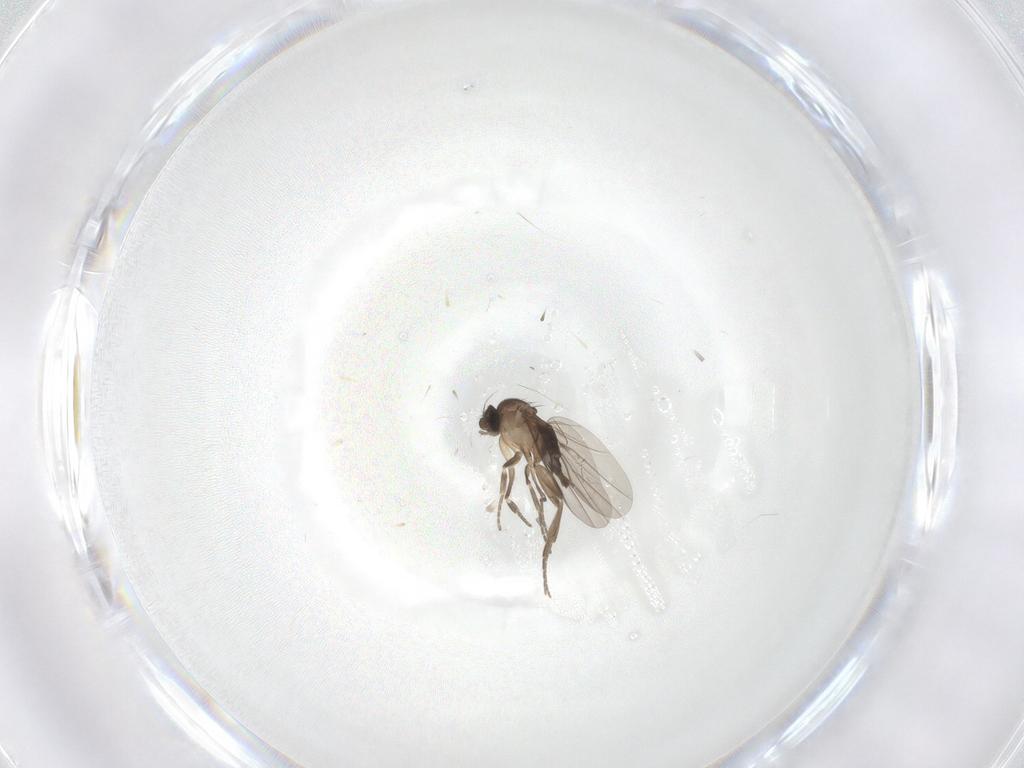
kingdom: Animalia
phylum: Arthropoda
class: Insecta
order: Diptera
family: Phoridae
